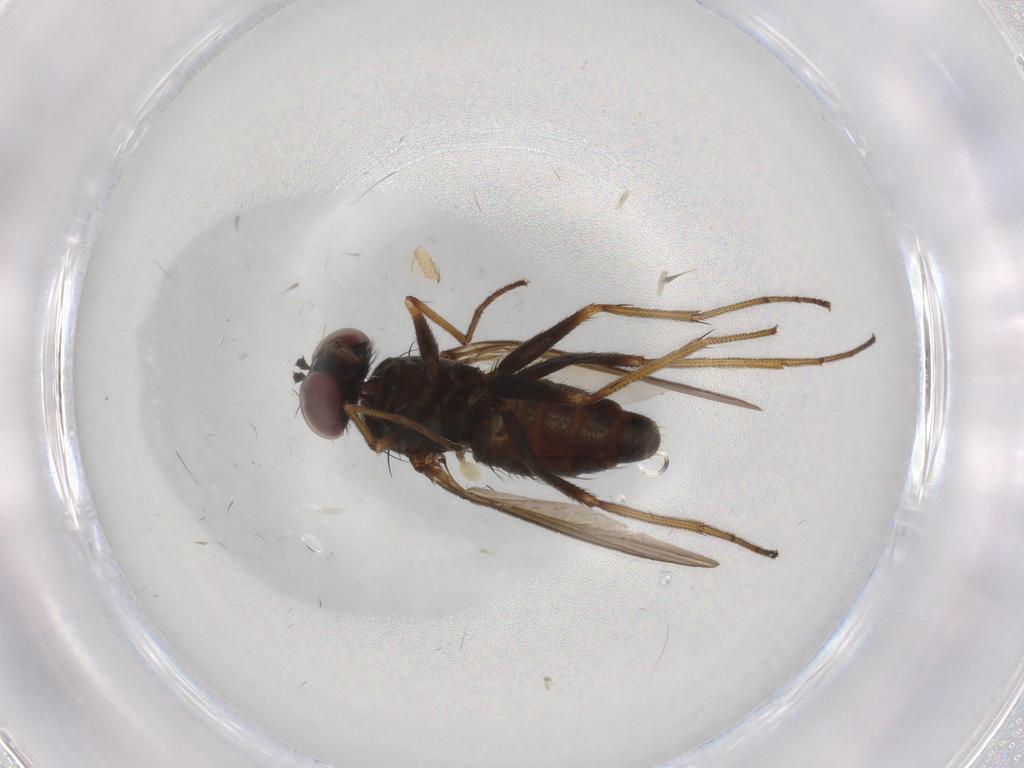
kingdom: Animalia
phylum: Arthropoda
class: Insecta
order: Diptera
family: Dolichopodidae
